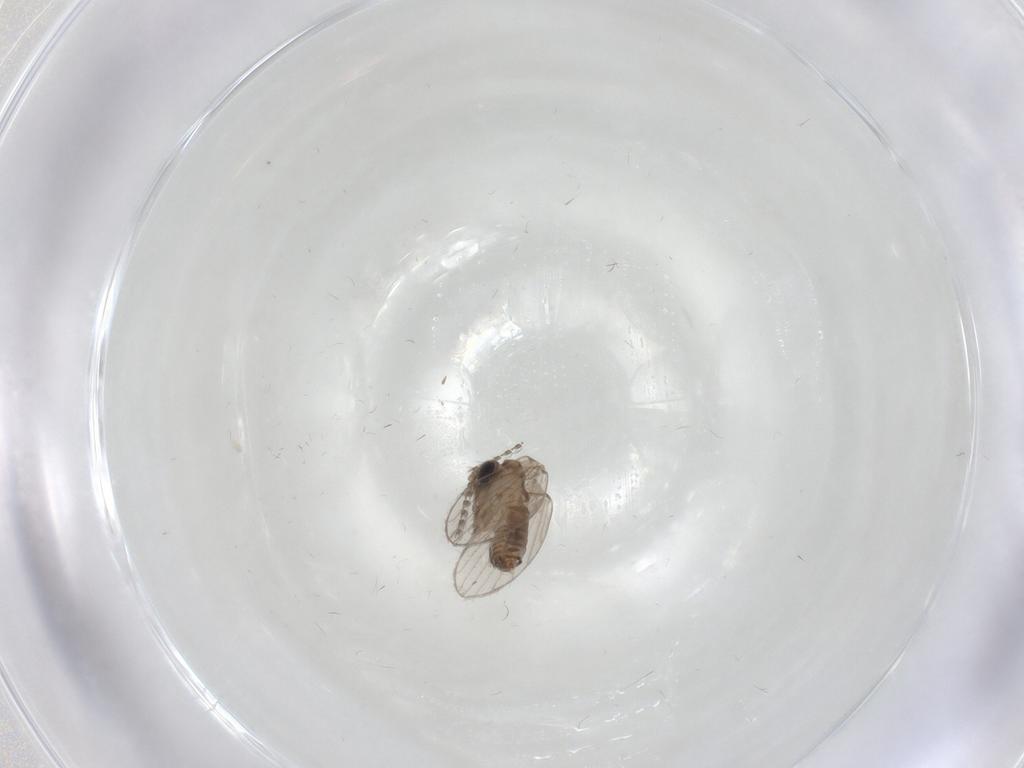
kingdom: Animalia
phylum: Arthropoda
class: Insecta
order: Diptera
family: Psychodidae
